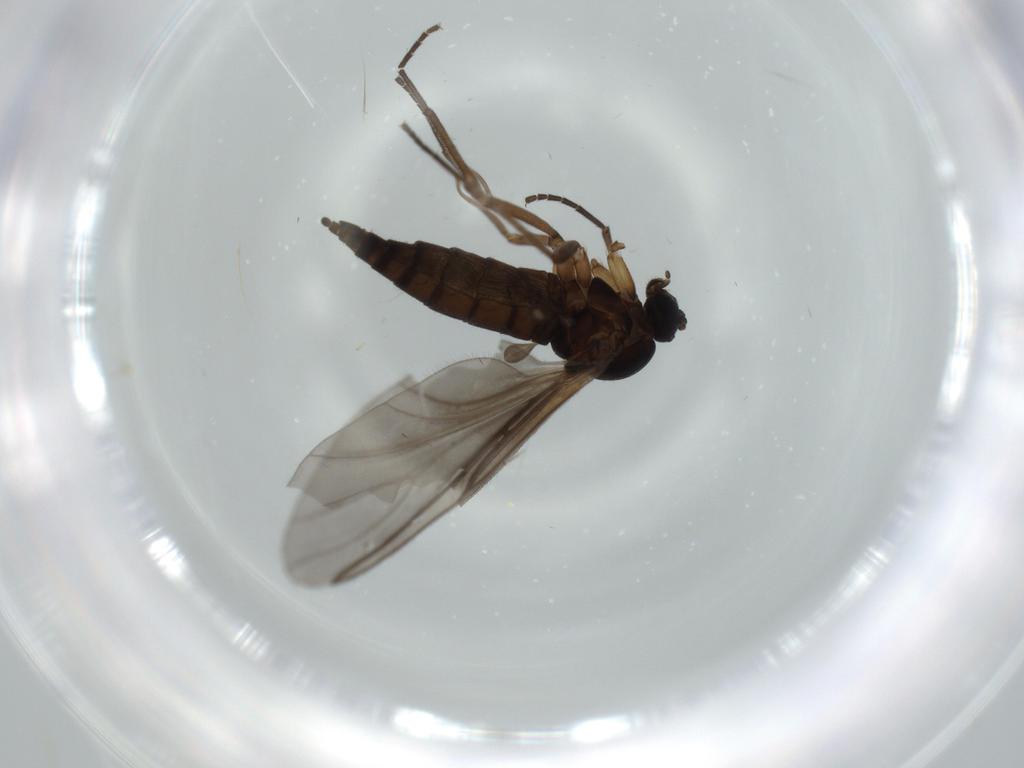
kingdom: Animalia
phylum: Arthropoda
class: Insecta
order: Diptera
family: Sciaridae
